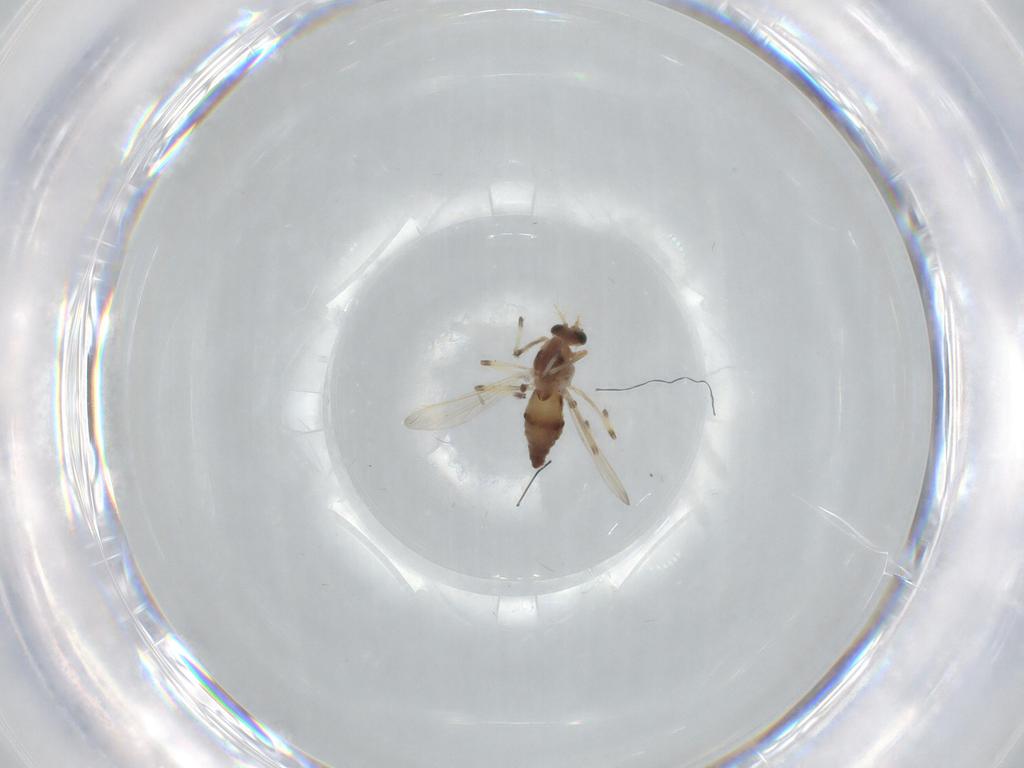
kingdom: Animalia
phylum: Arthropoda
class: Insecta
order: Diptera
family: Chironomidae
